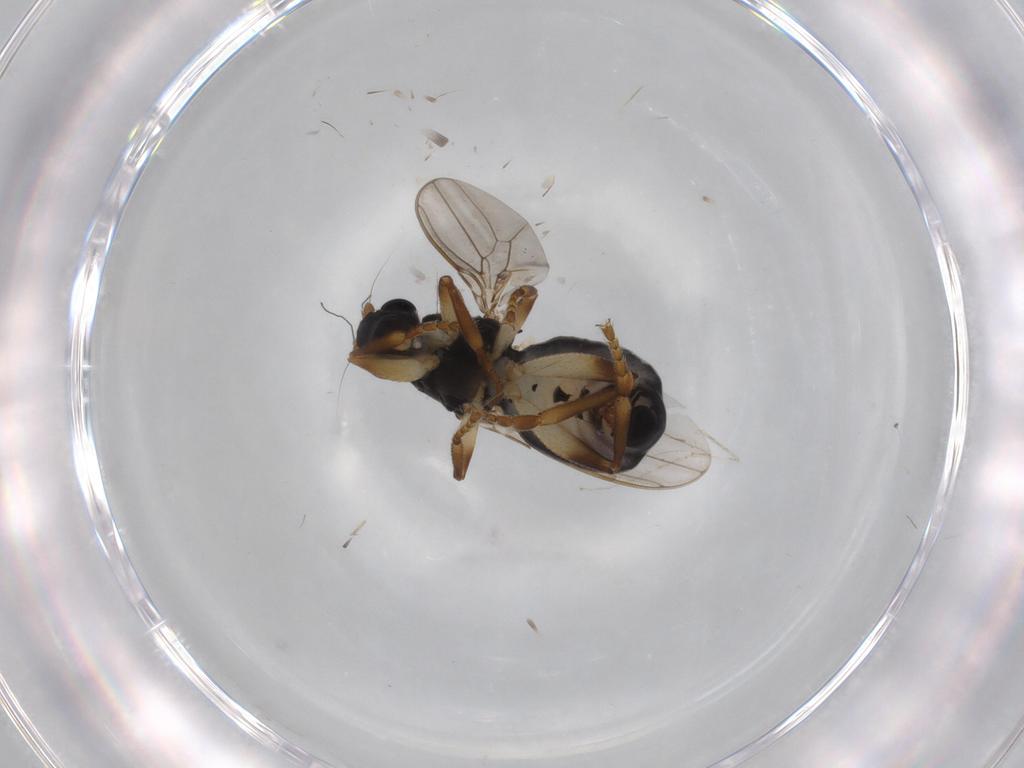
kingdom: Animalia
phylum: Arthropoda
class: Insecta
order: Diptera
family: Sphaeroceridae
